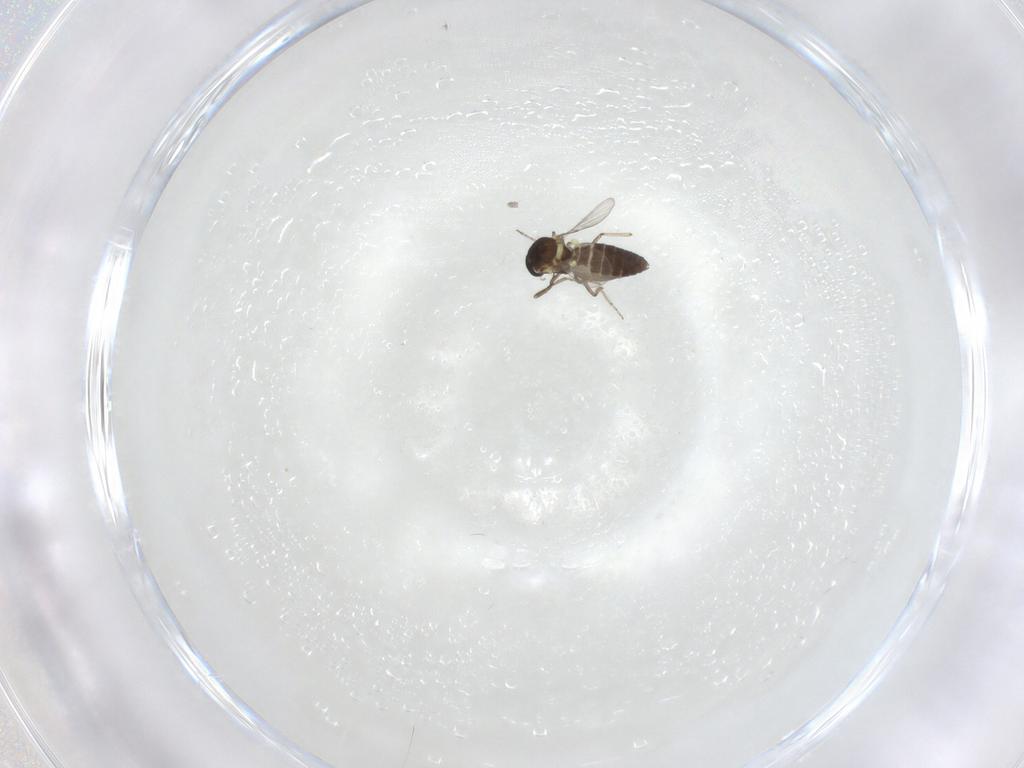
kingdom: Animalia
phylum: Arthropoda
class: Insecta
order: Diptera
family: Ceratopogonidae
